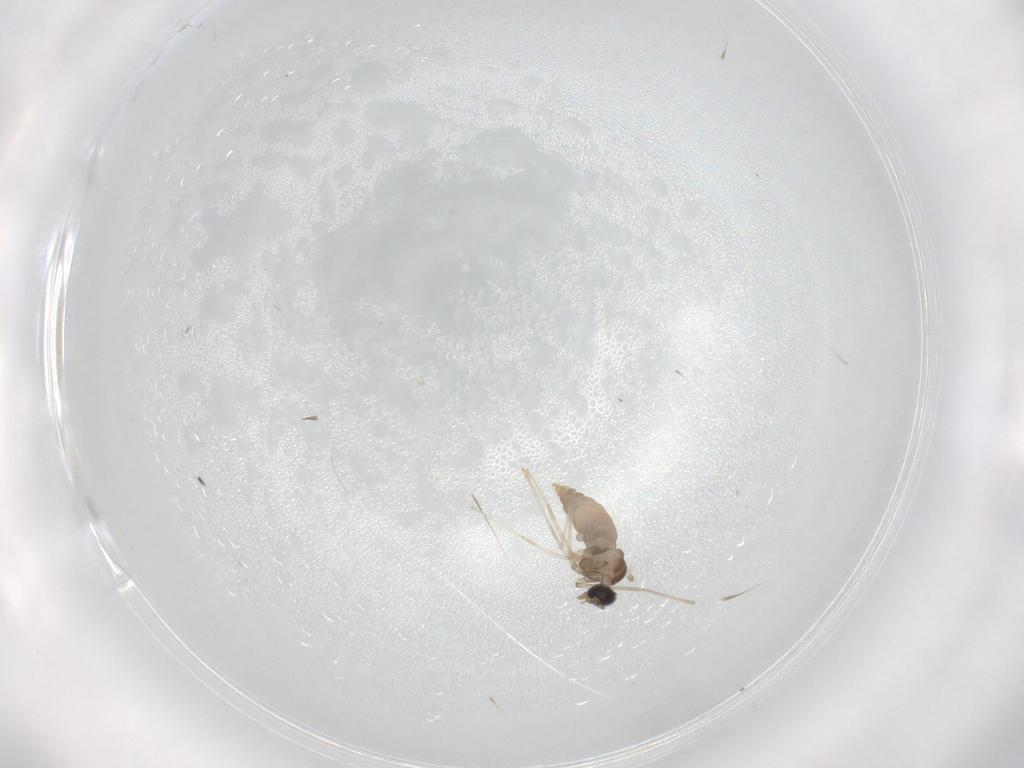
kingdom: Animalia
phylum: Arthropoda
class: Insecta
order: Diptera
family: Cecidomyiidae
